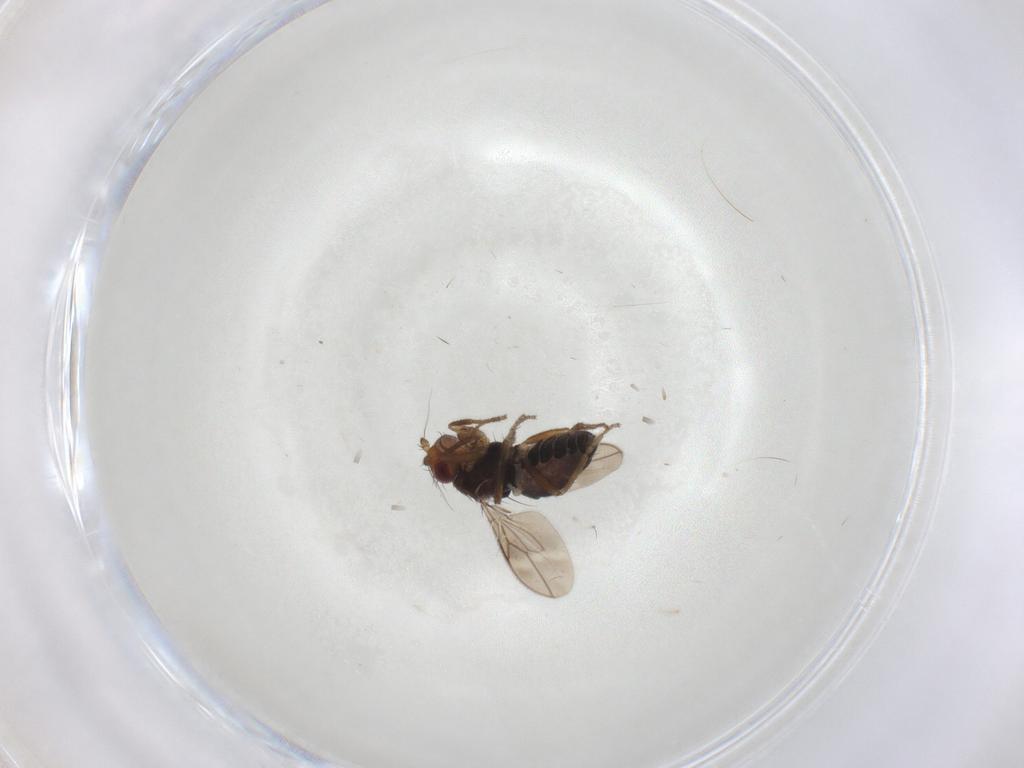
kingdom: Animalia
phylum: Arthropoda
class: Insecta
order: Diptera
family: Sphaeroceridae
